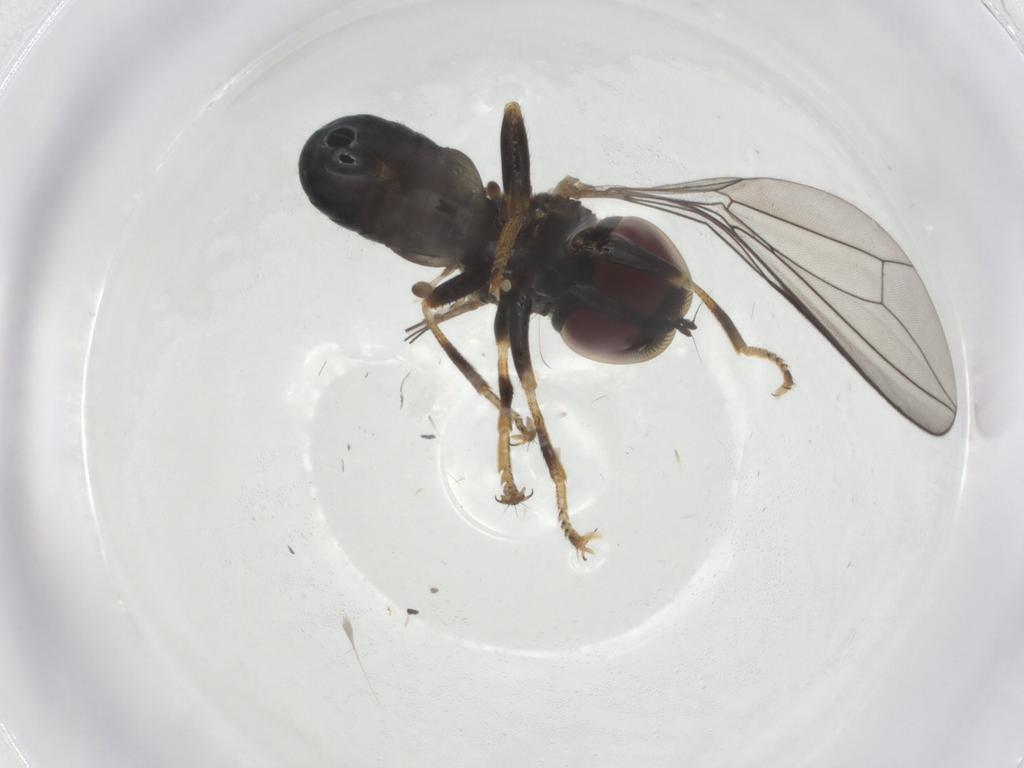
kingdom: Animalia
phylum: Arthropoda
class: Insecta
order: Diptera
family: Pipunculidae
